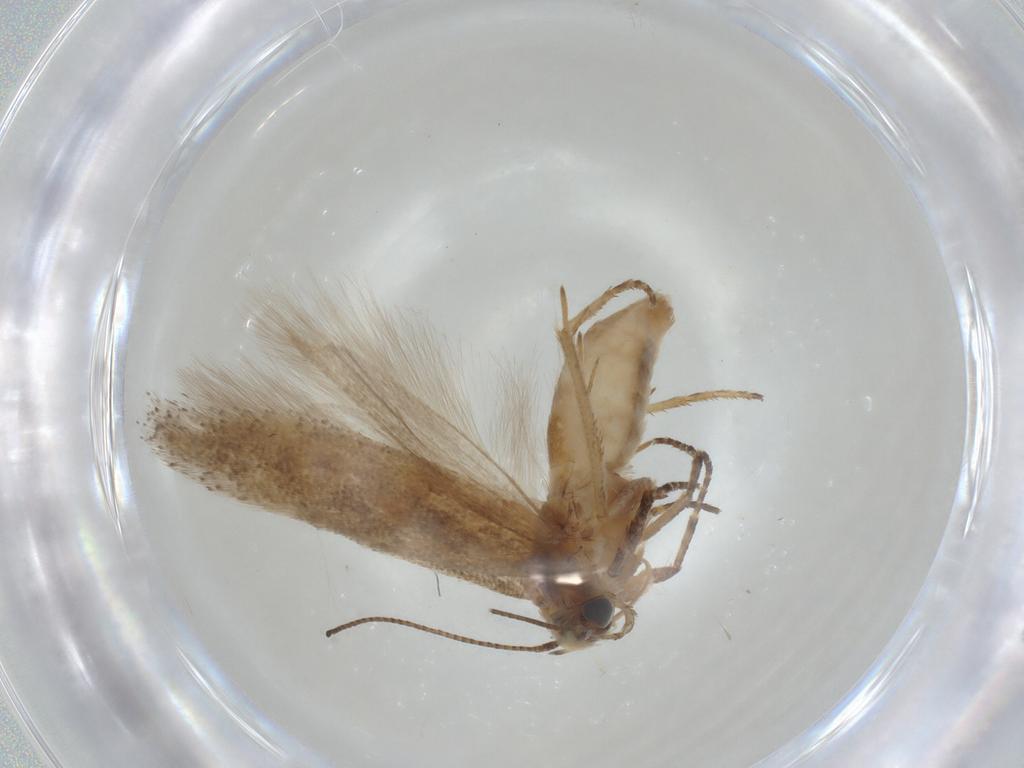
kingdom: Animalia
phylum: Arthropoda
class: Insecta
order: Lepidoptera
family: Gelechiidae
